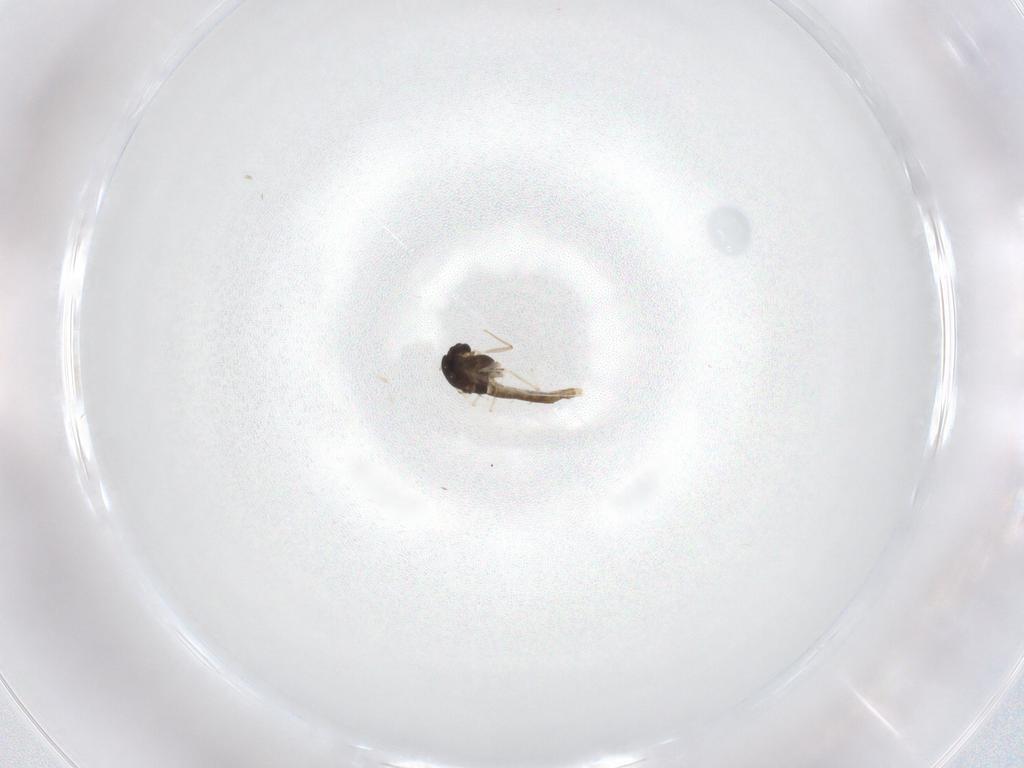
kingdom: Animalia
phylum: Arthropoda
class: Insecta
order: Diptera
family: Chironomidae
